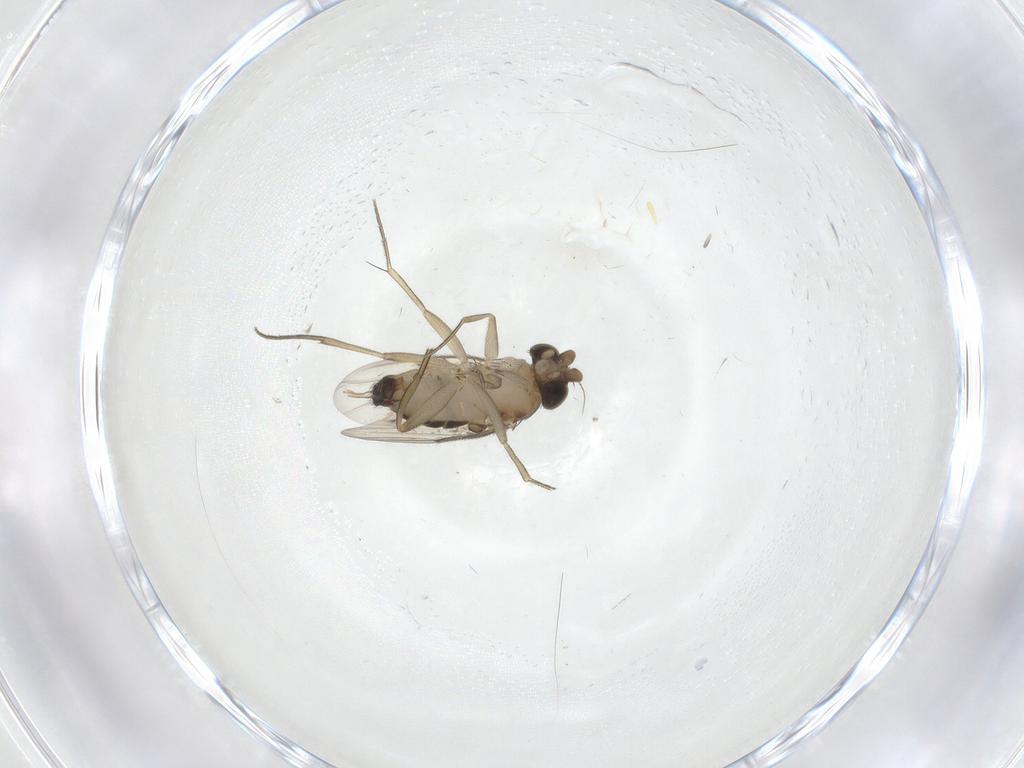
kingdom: Animalia
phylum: Arthropoda
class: Insecta
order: Diptera
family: Phoridae
